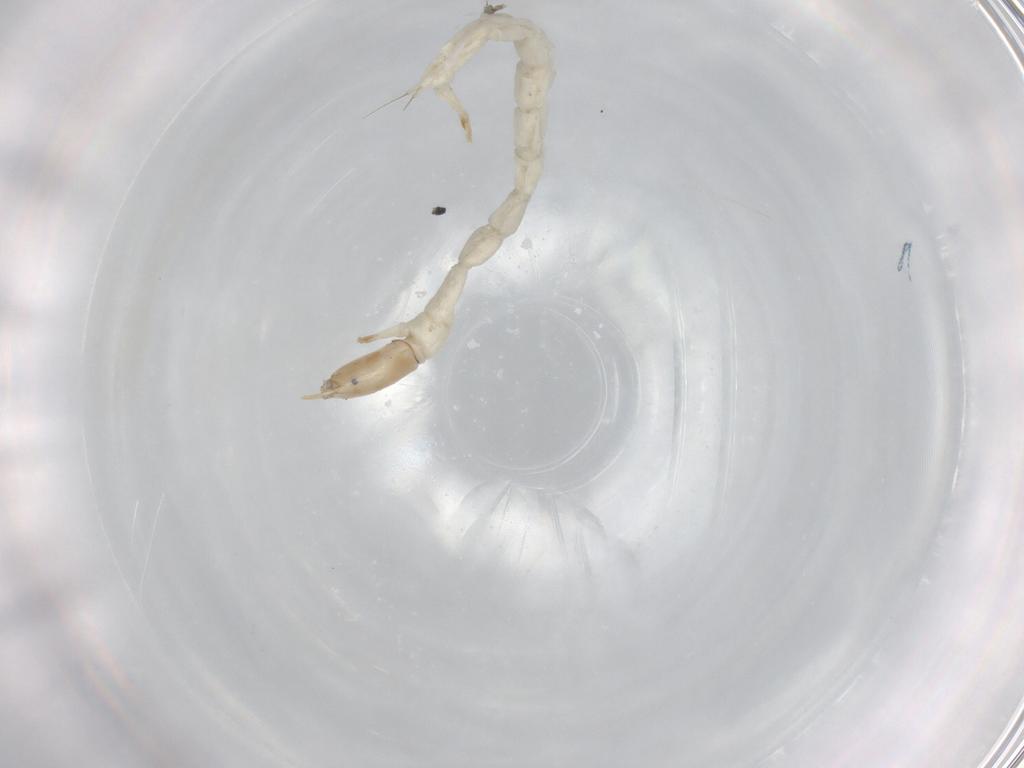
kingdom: Animalia
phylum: Arthropoda
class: Insecta
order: Diptera
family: Chironomidae
